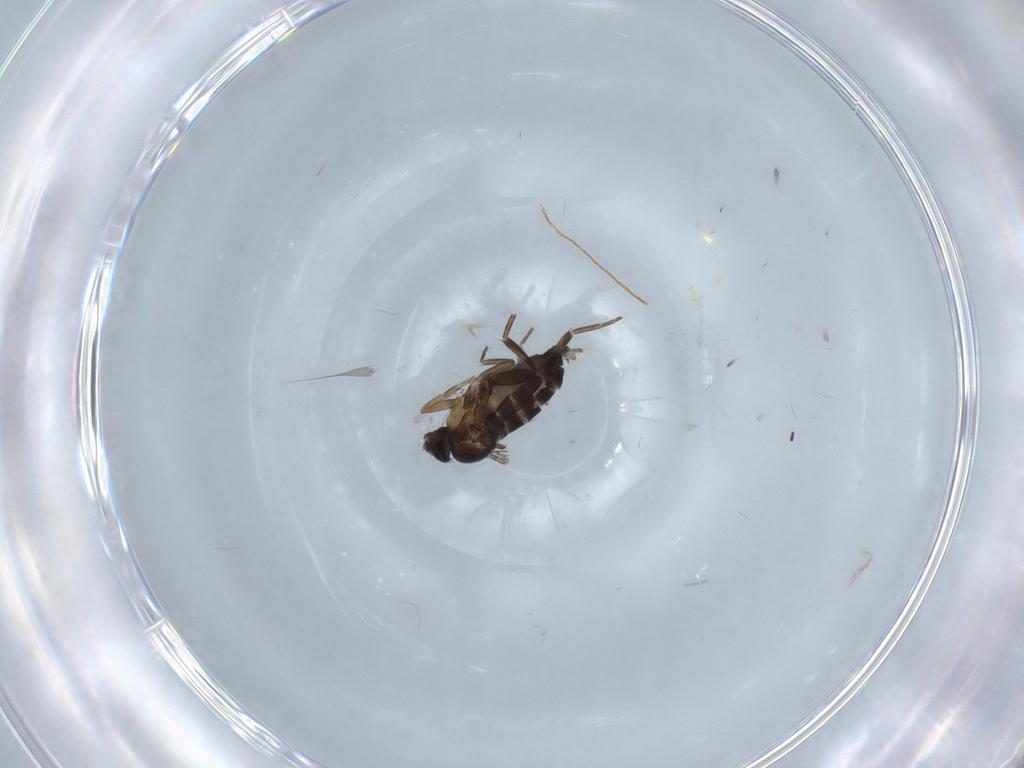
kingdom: Animalia
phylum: Arthropoda
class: Insecta
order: Diptera
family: Phoridae
